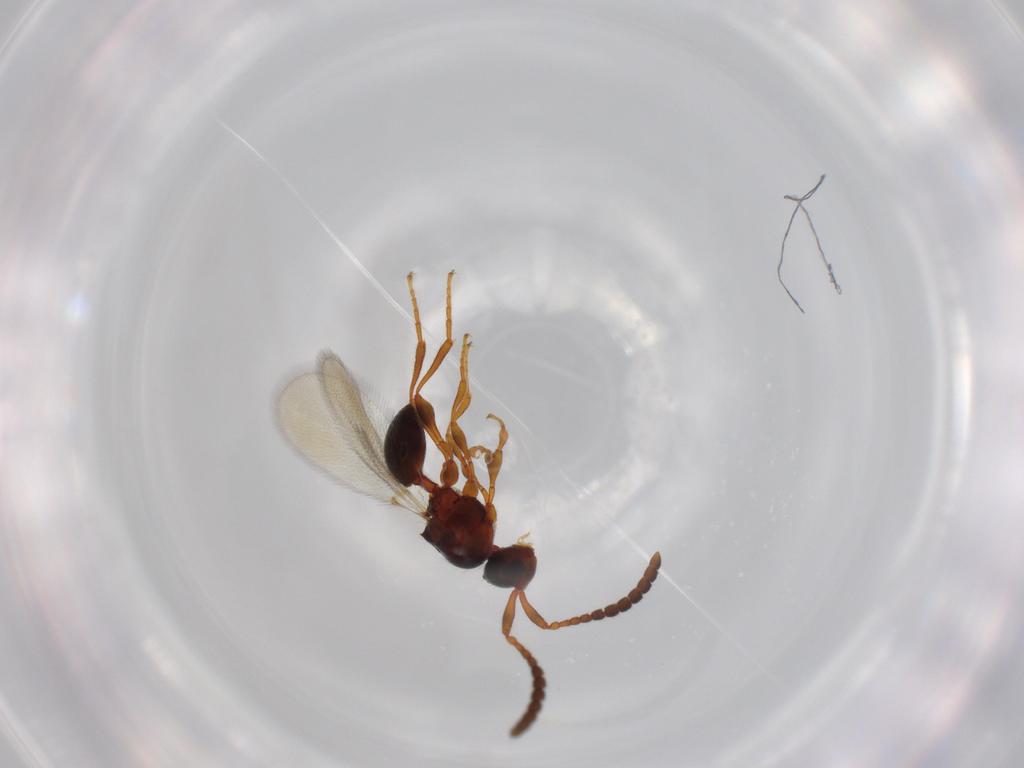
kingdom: Animalia
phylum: Arthropoda
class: Insecta
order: Hymenoptera
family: Diapriidae
